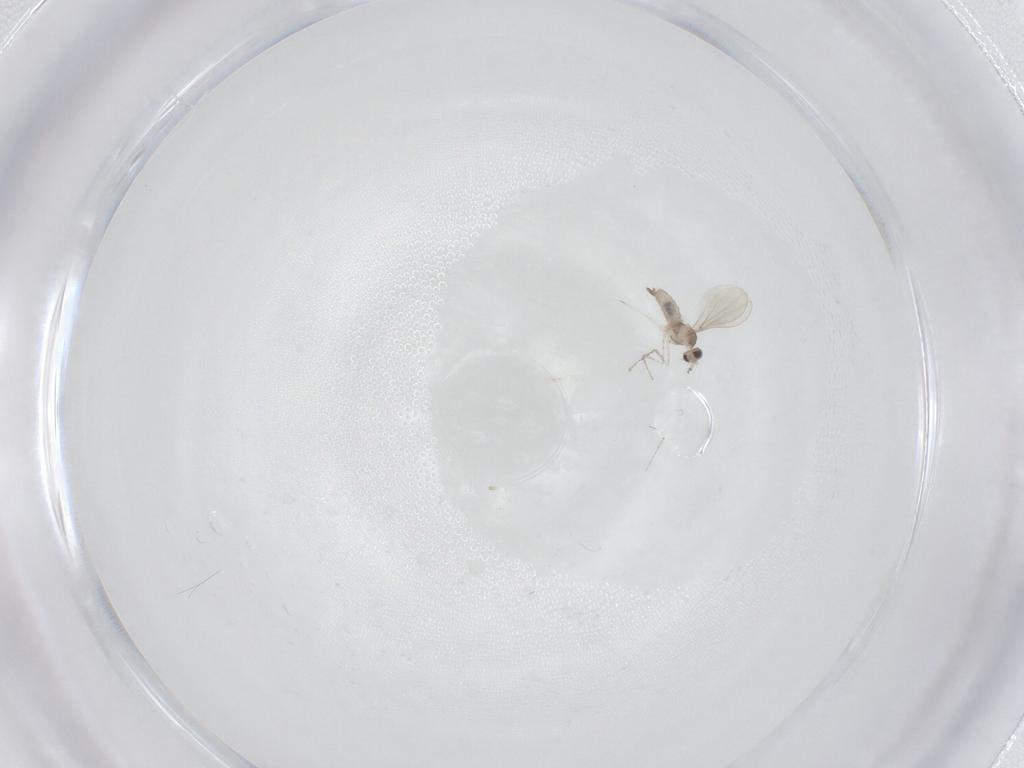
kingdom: Animalia
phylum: Arthropoda
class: Insecta
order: Diptera
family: Cecidomyiidae
